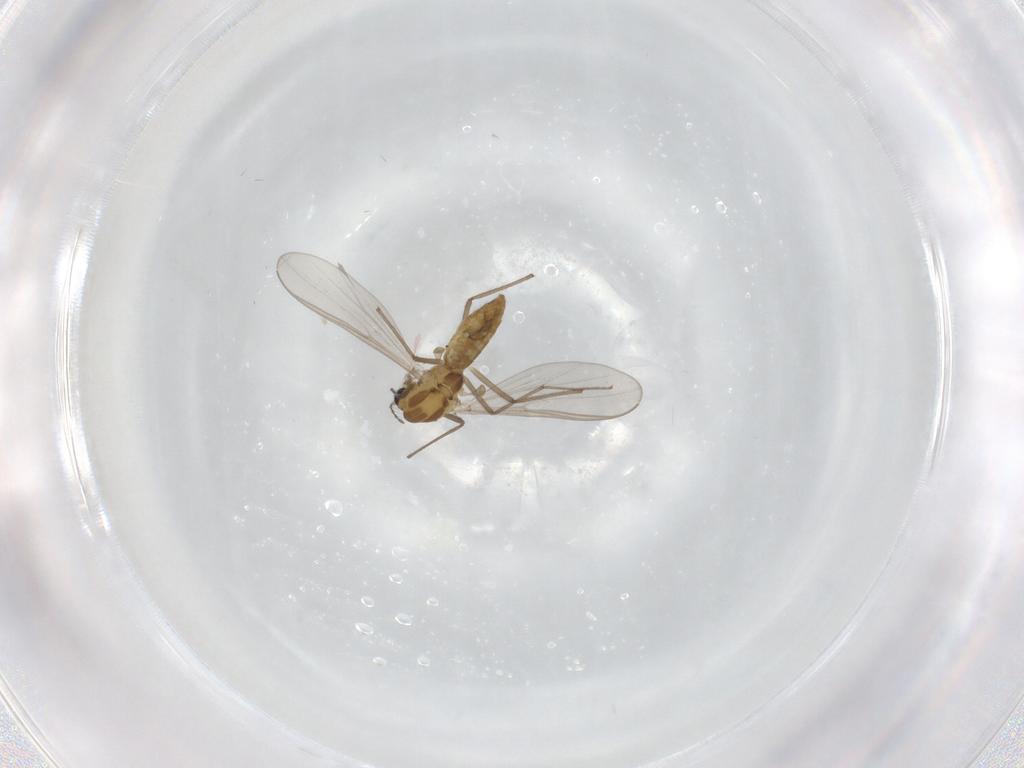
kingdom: Animalia
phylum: Arthropoda
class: Insecta
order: Diptera
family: Chironomidae
